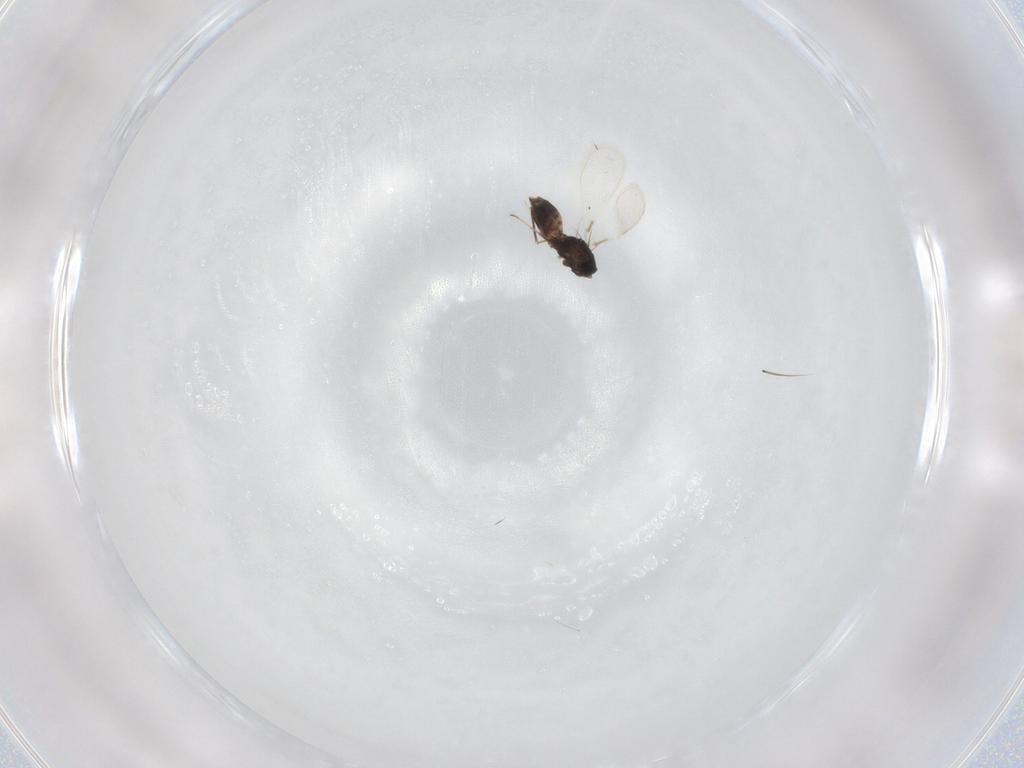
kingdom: Animalia
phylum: Arthropoda
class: Insecta
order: Hymenoptera
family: Mymaridae
